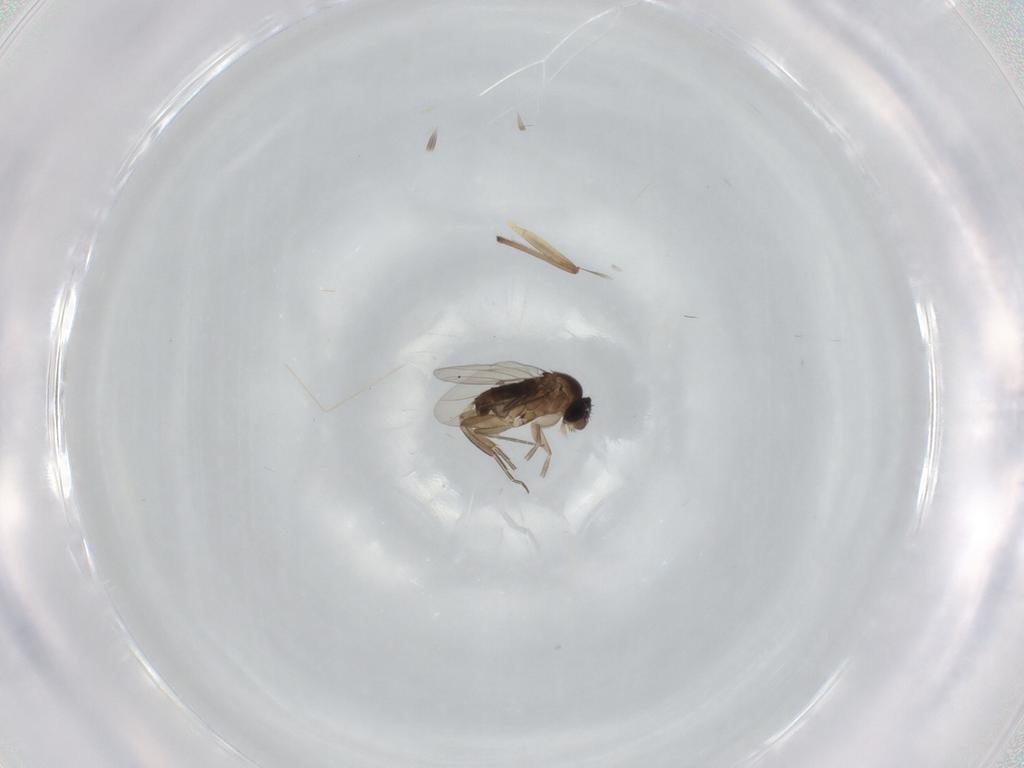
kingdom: Animalia
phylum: Arthropoda
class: Insecta
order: Diptera
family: Phoridae
